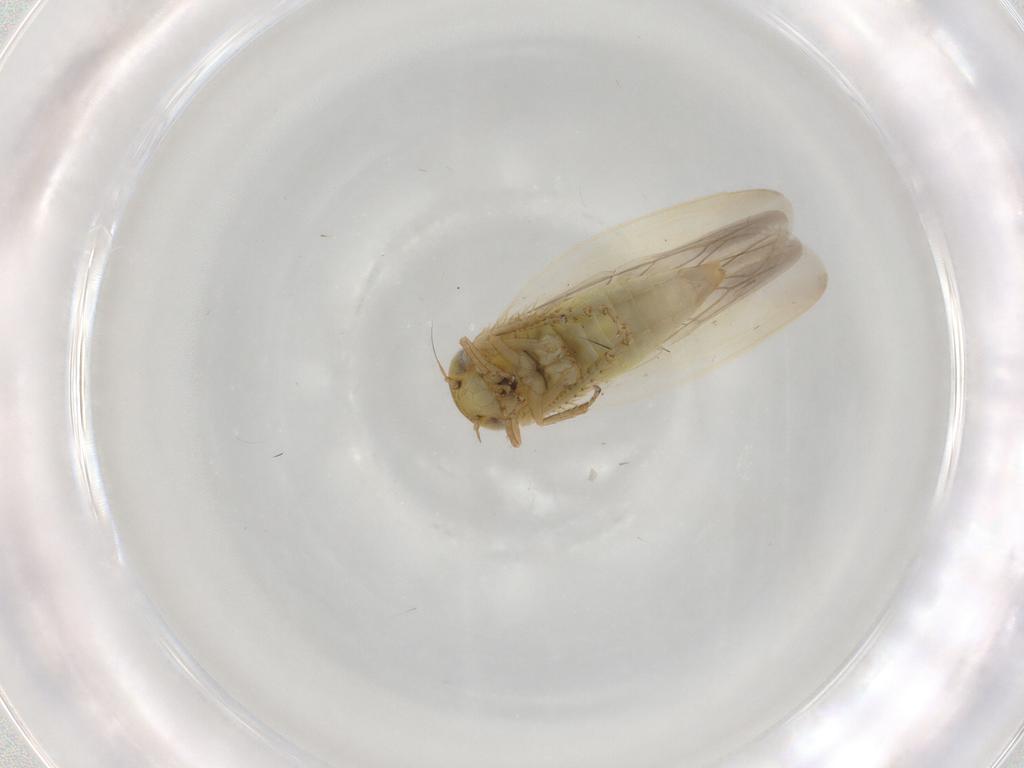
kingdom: Animalia
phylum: Arthropoda
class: Insecta
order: Hemiptera
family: Cicadellidae
